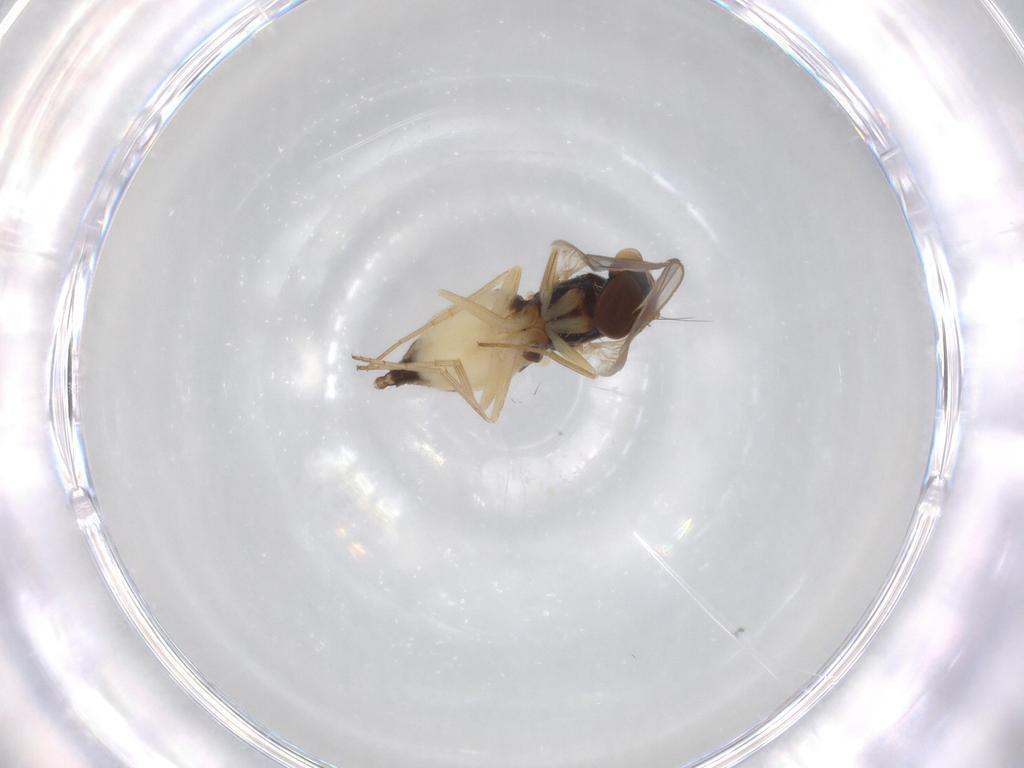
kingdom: Animalia
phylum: Arthropoda
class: Insecta
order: Diptera
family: Dolichopodidae
